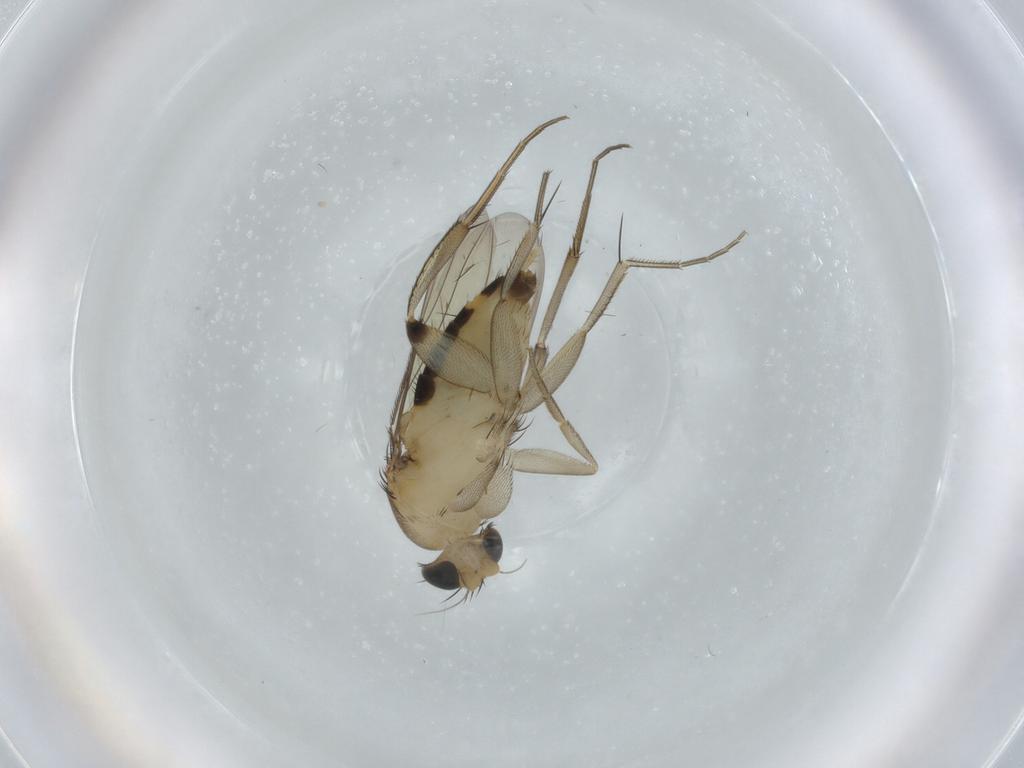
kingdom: Animalia
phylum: Arthropoda
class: Insecta
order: Diptera
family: Phoridae
